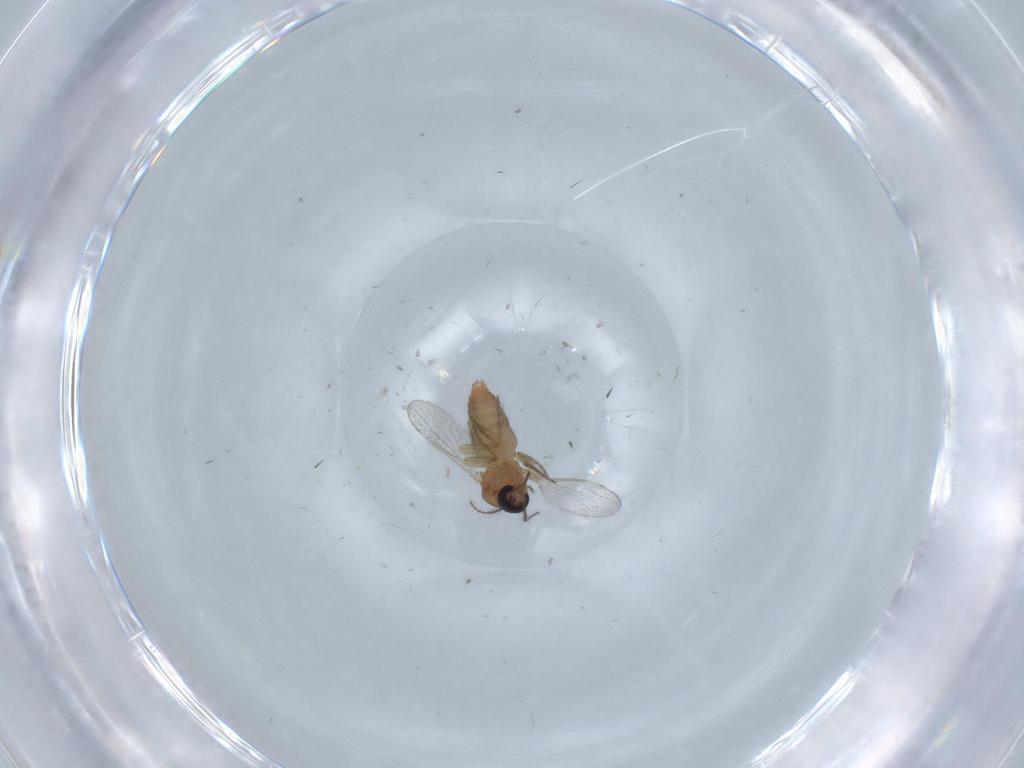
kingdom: Animalia
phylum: Arthropoda
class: Insecta
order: Diptera
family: Ceratopogonidae
